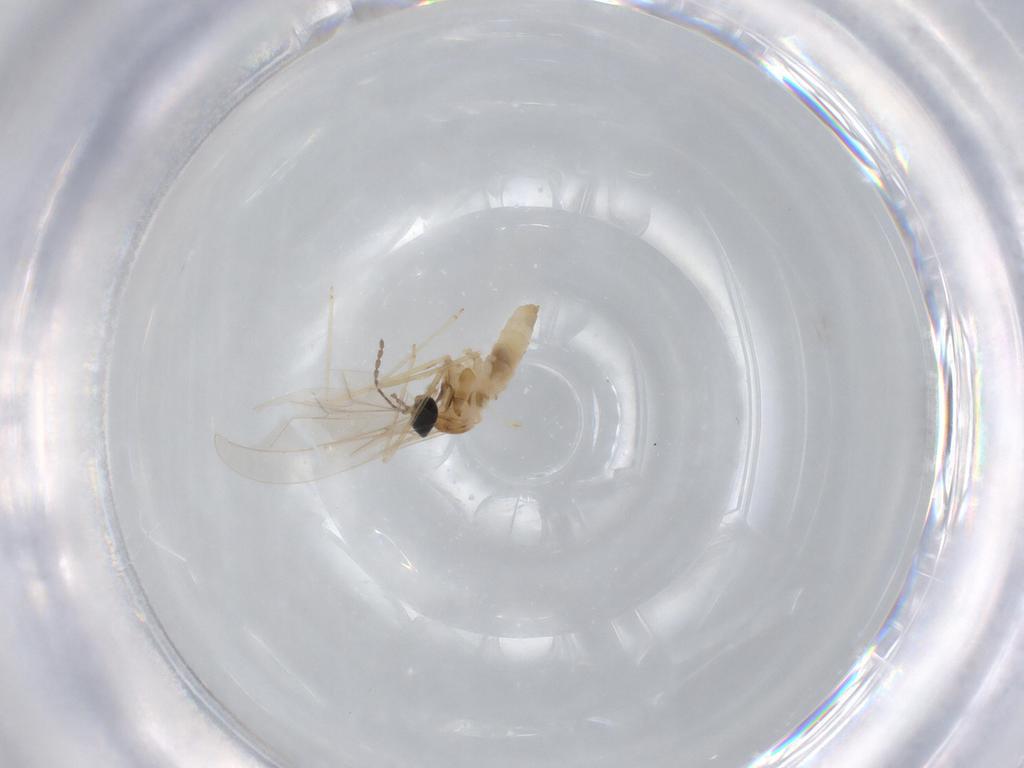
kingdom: Animalia
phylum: Arthropoda
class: Insecta
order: Diptera
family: Cecidomyiidae
